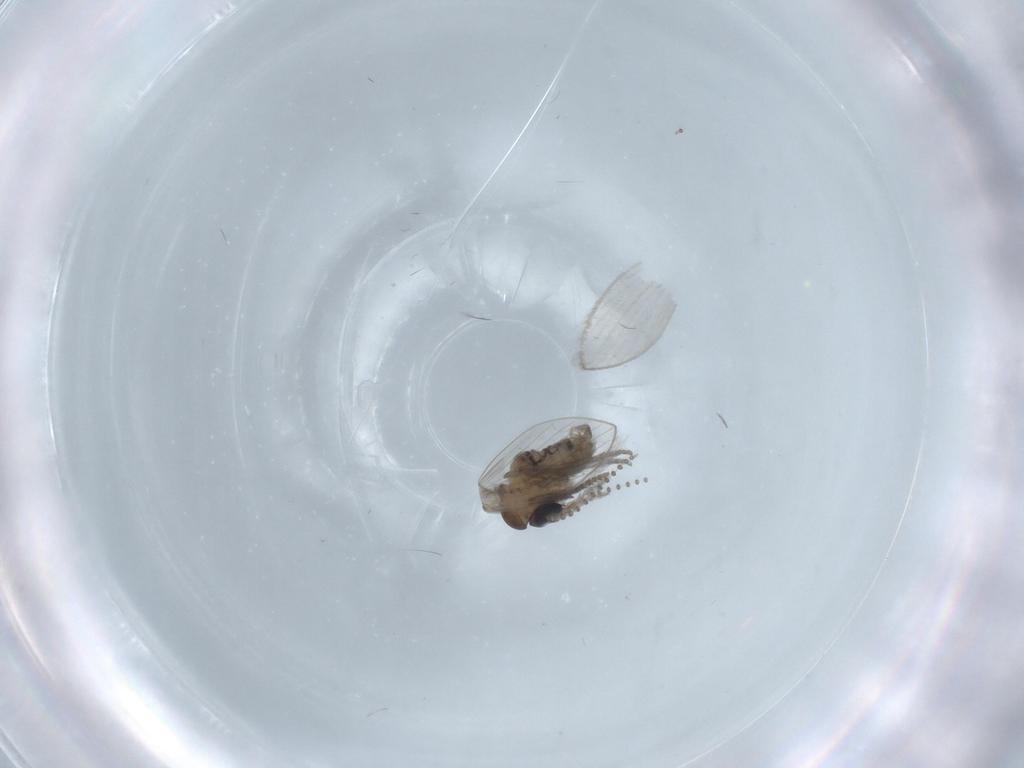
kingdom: Animalia
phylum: Arthropoda
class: Insecta
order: Diptera
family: Psychodidae
